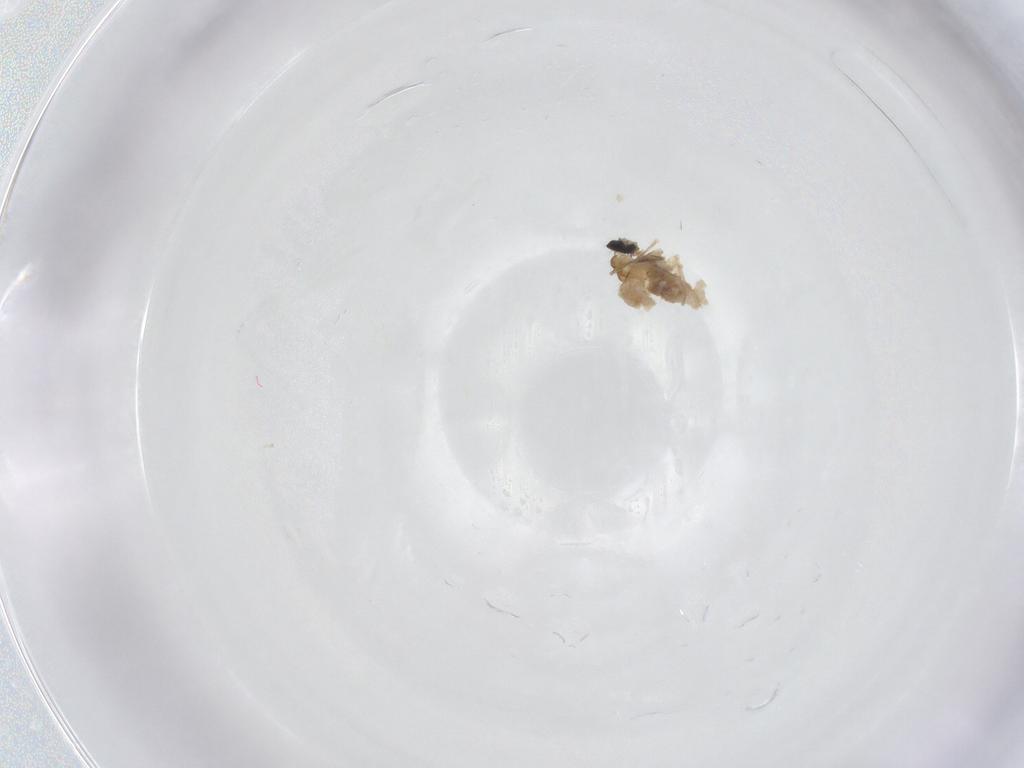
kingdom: Animalia
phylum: Arthropoda
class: Insecta
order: Diptera
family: Cecidomyiidae
